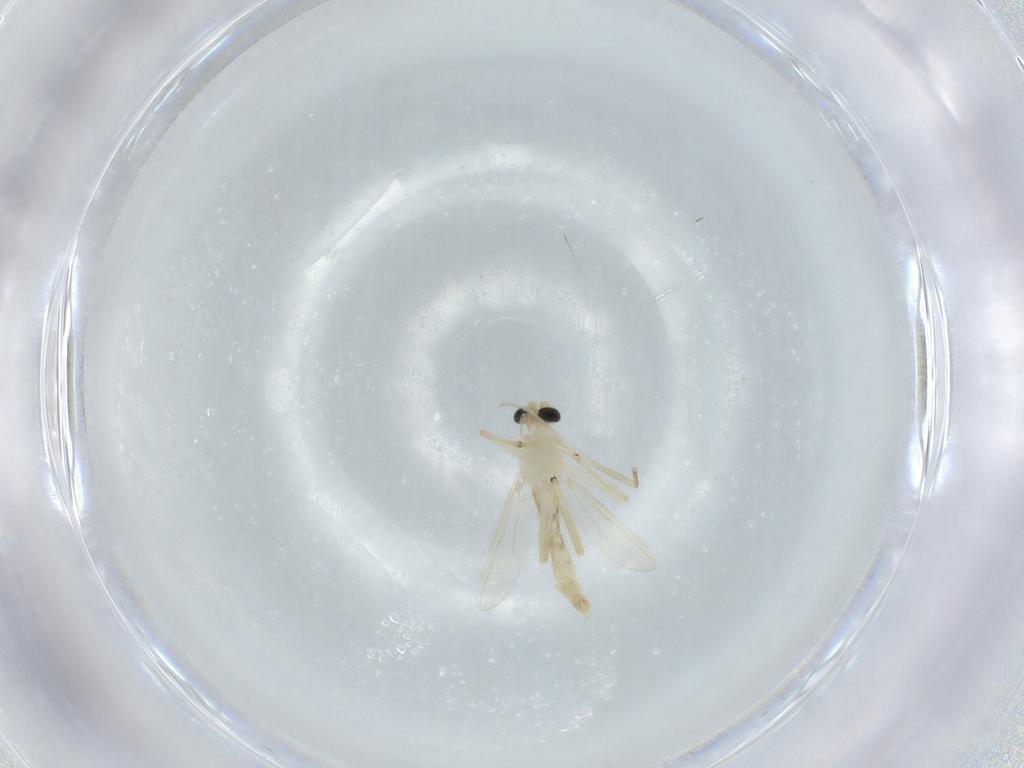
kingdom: Animalia
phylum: Arthropoda
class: Insecta
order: Diptera
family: Chironomidae
